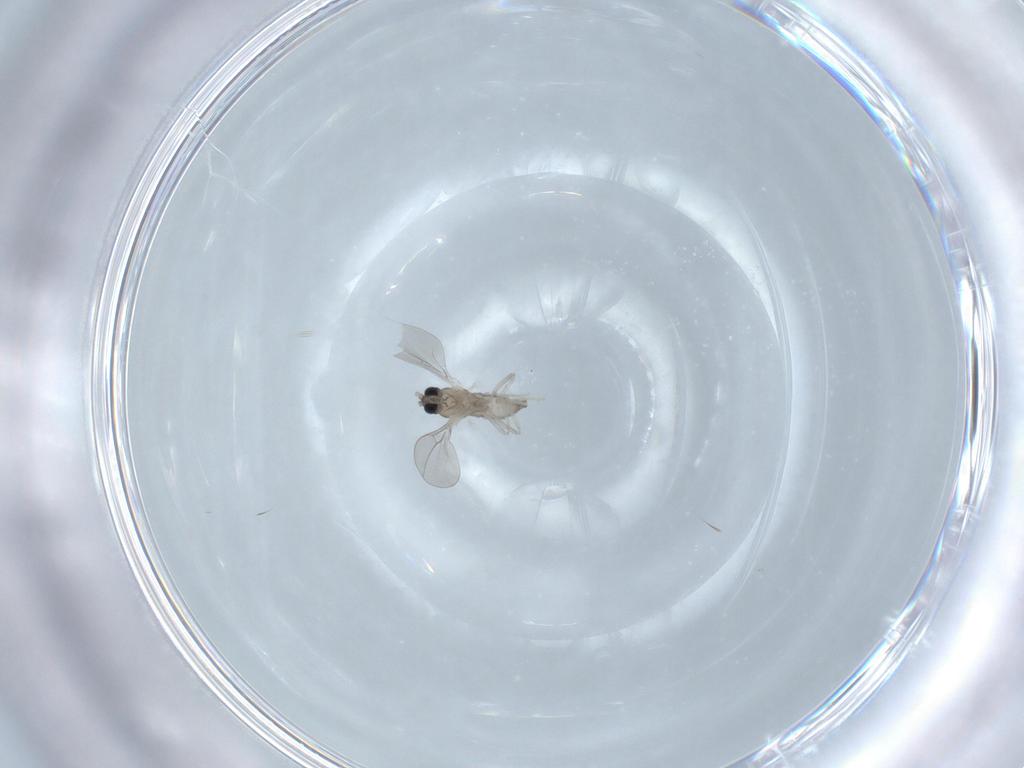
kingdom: Animalia
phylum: Arthropoda
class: Insecta
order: Diptera
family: Cecidomyiidae
